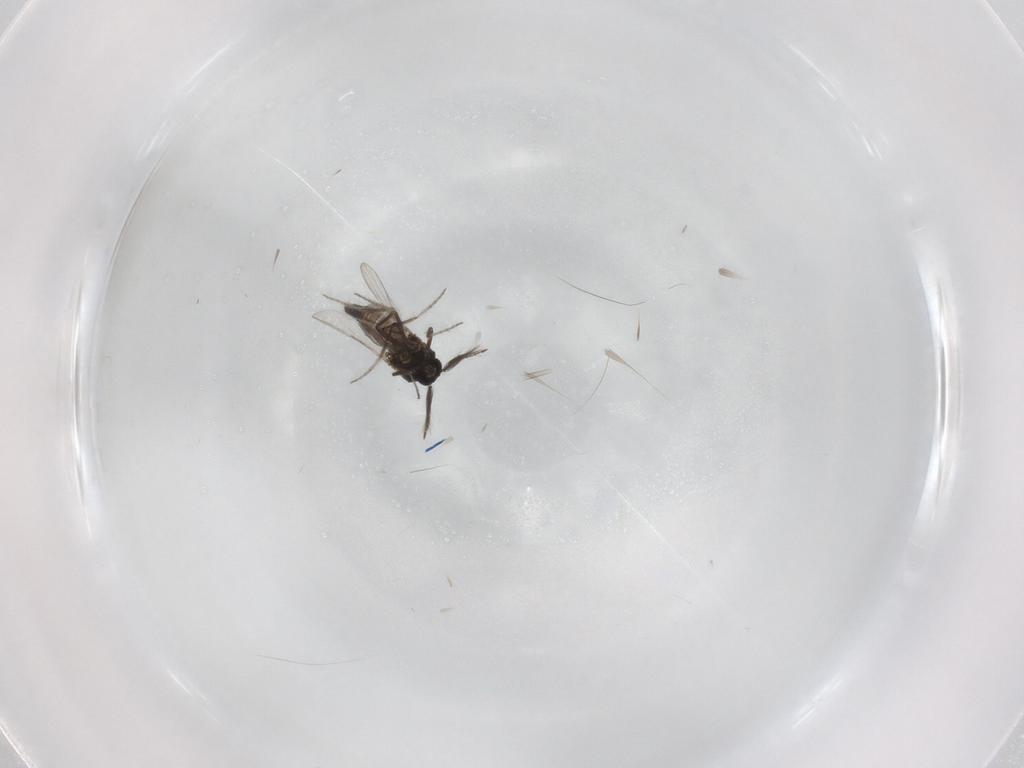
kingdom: Animalia
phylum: Arthropoda
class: Insecta
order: Diptera
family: Ceratopogonidae
